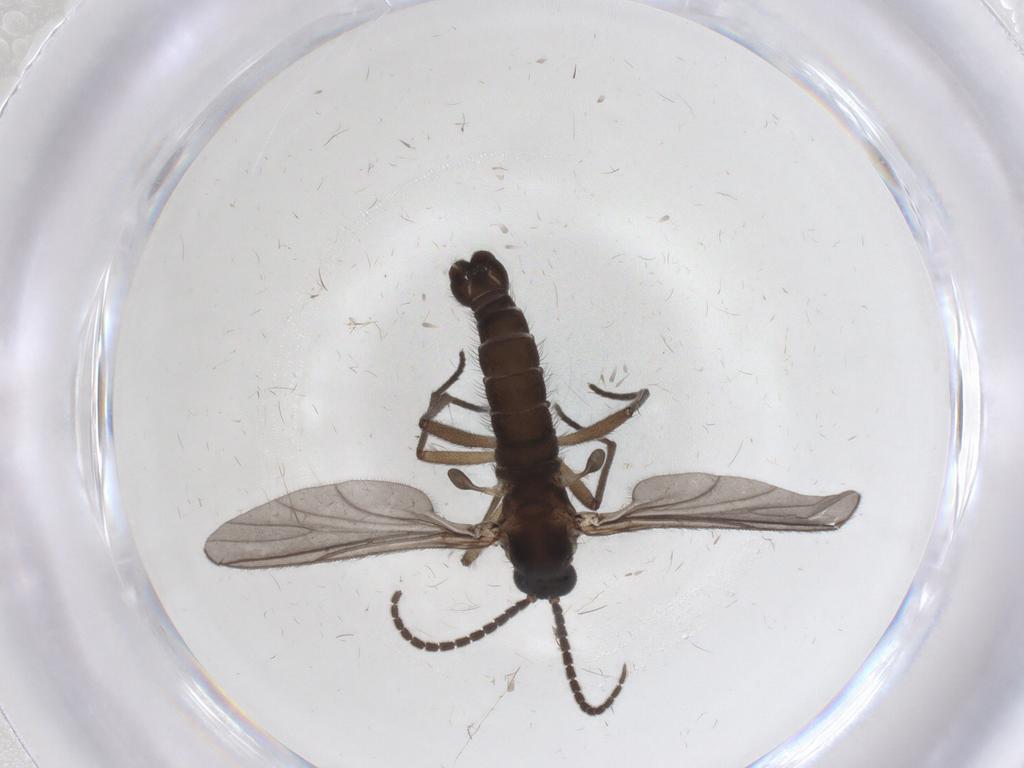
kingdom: Animalia
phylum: Arthropoda
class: Insecta
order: Diptera
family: Sciaridae
